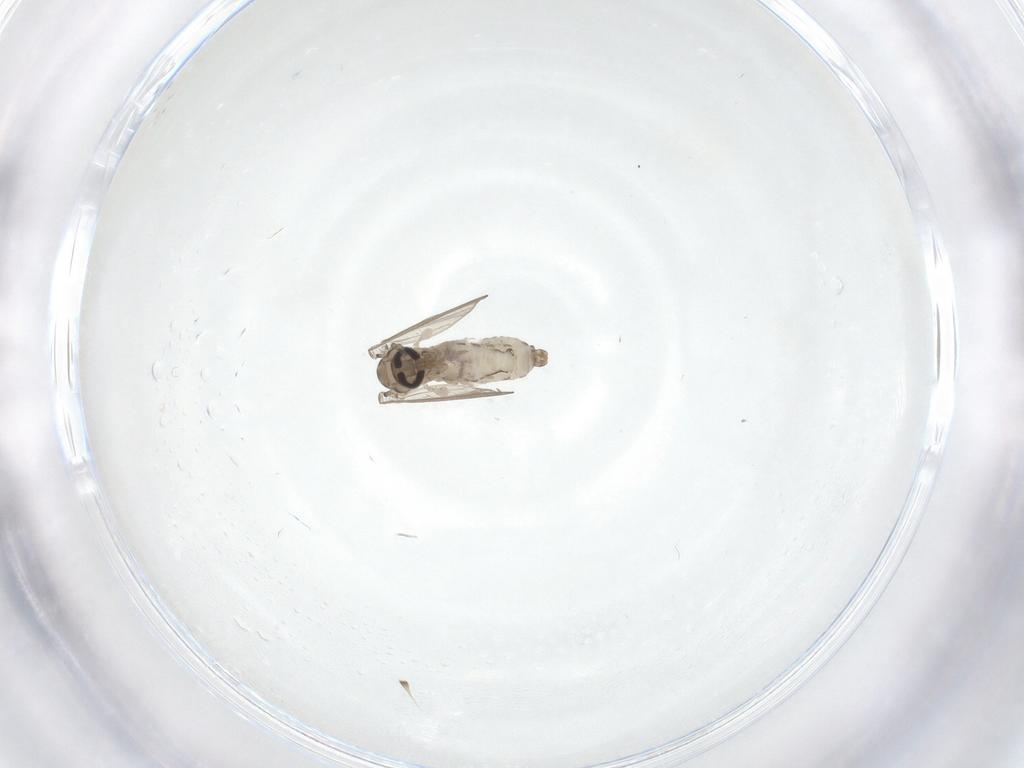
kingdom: Animalia
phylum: Arthropoda
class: Insecta
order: Diptera
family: Psychodidae
